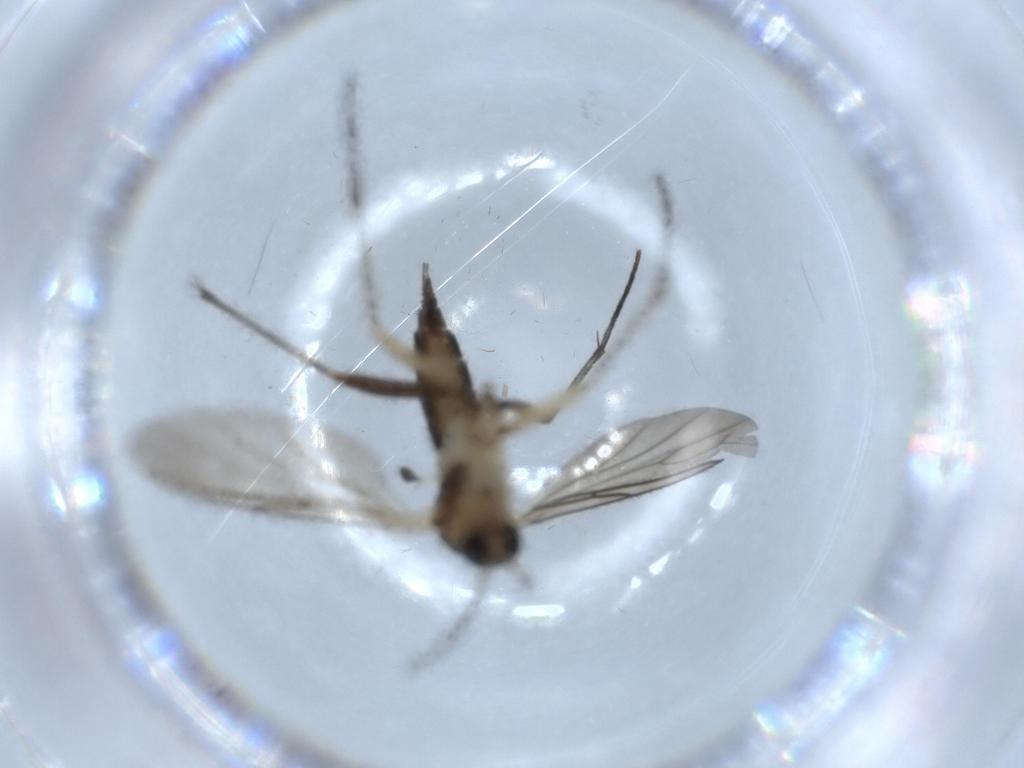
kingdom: Animalia
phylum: Arthropoda
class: Insecta
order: Diptera
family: Sciaridae
